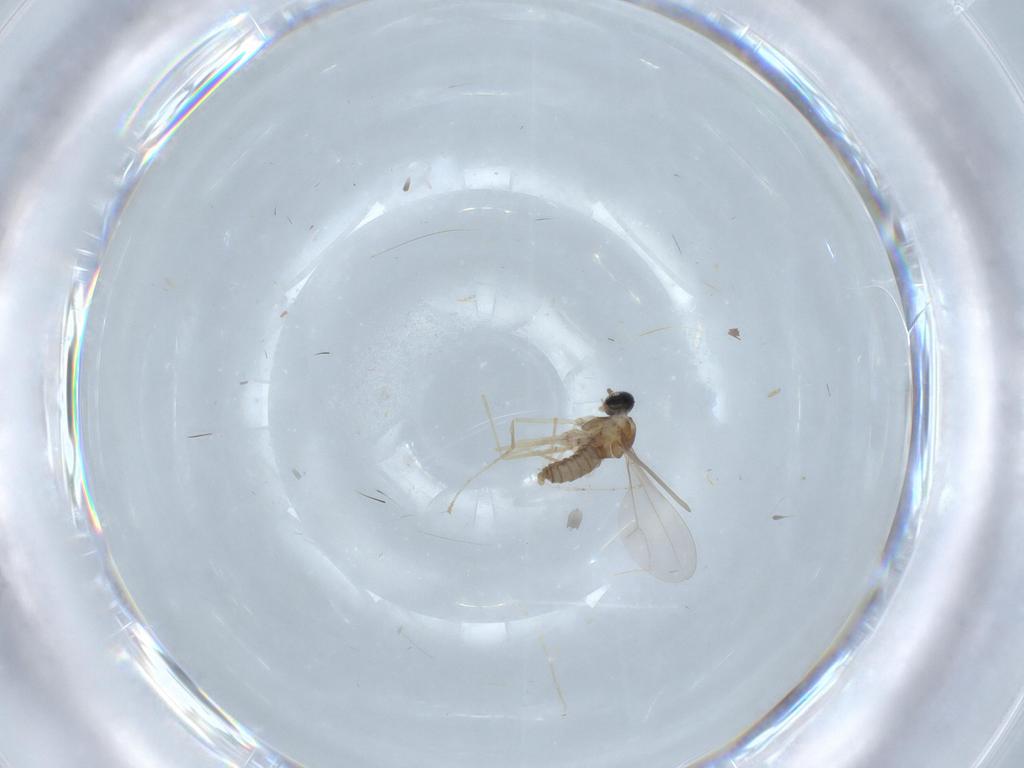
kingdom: Animalia
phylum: Arthropoda
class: Insecta
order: Diptera
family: Cecidomyiidae
